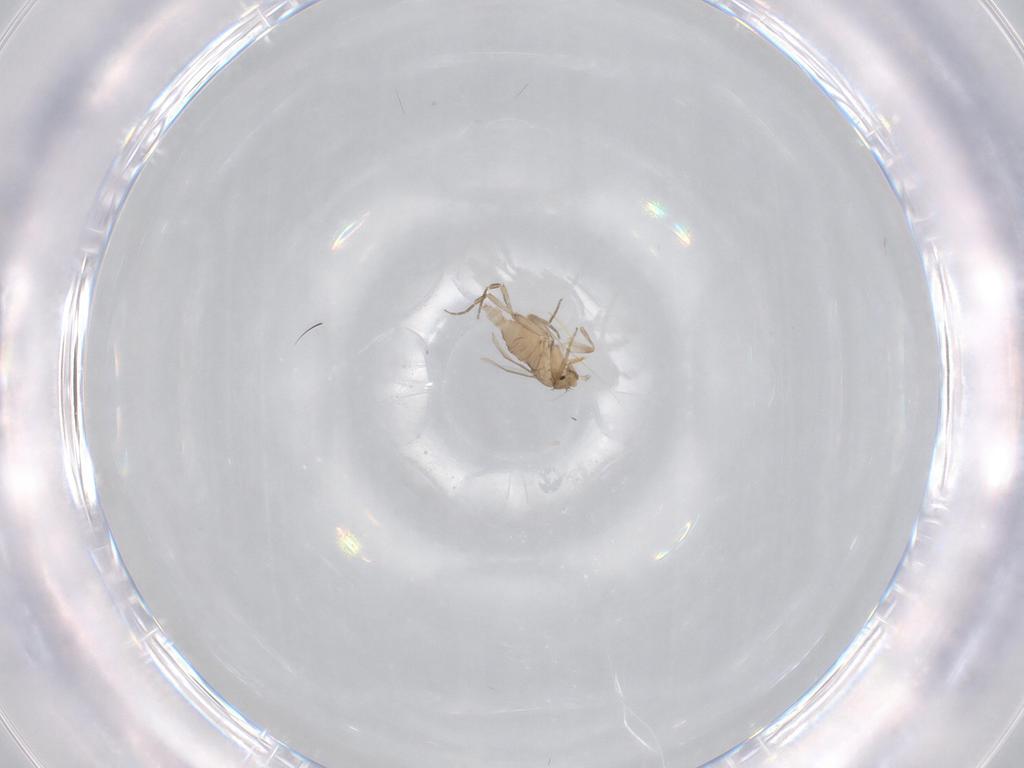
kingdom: Animalia
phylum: Arthropoda
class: Insecta
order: Diptera
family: Phoridae
